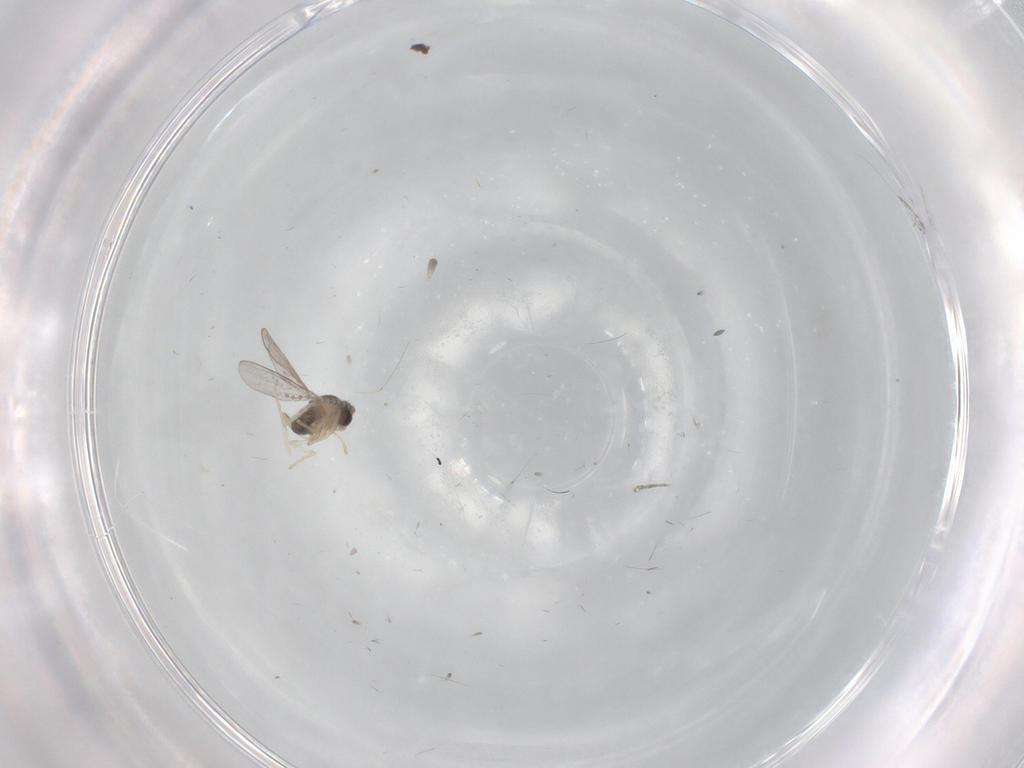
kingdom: Animalia
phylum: Arthropoda
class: Insecta
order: Diptera
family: Cecidomyiidae
